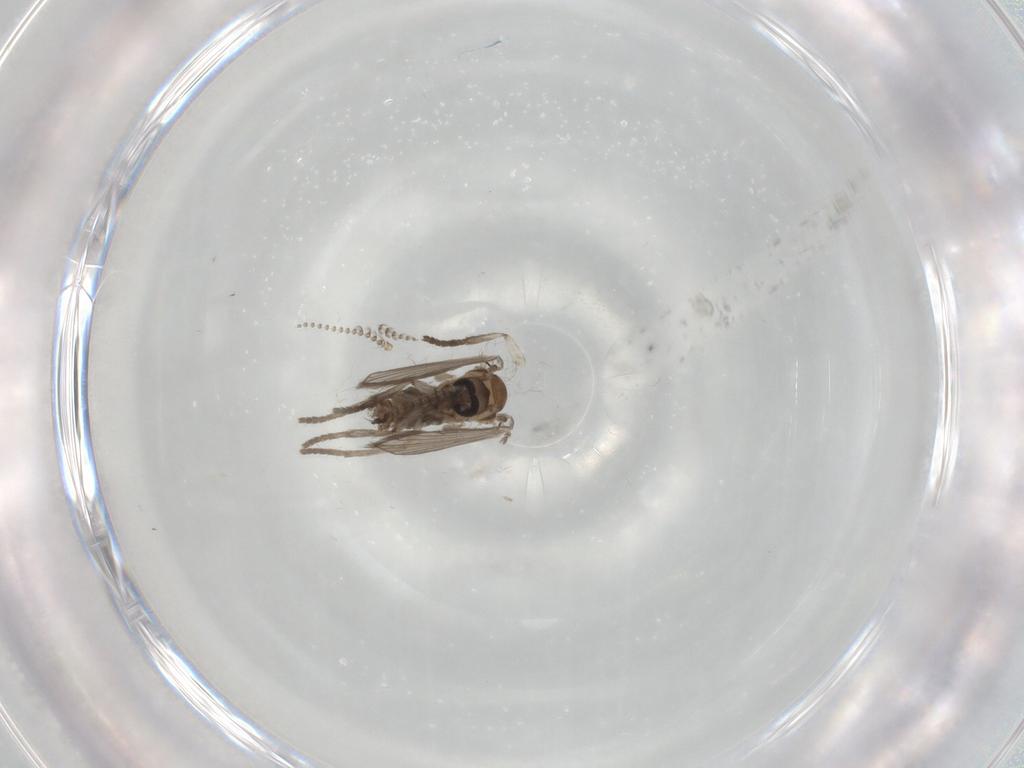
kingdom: Animalia
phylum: Arthropoda
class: Insecta
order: Diptera
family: Psychodidae
